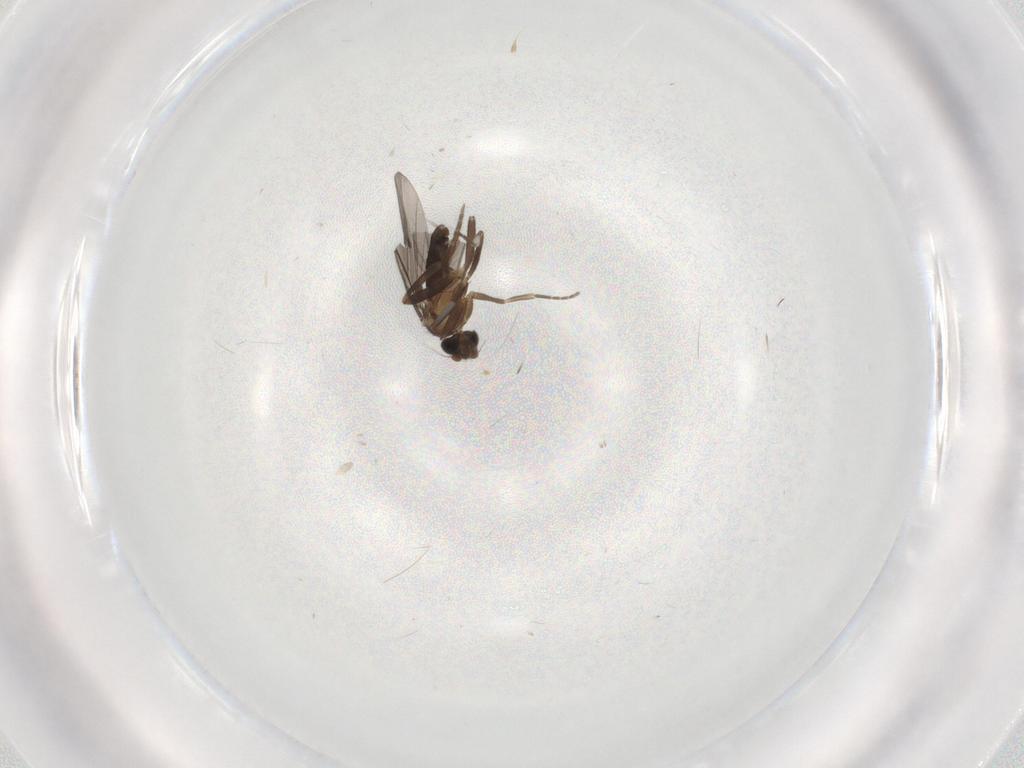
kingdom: Animalia
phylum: Arthropoda
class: Insecta
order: Diptera
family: Phoridae
